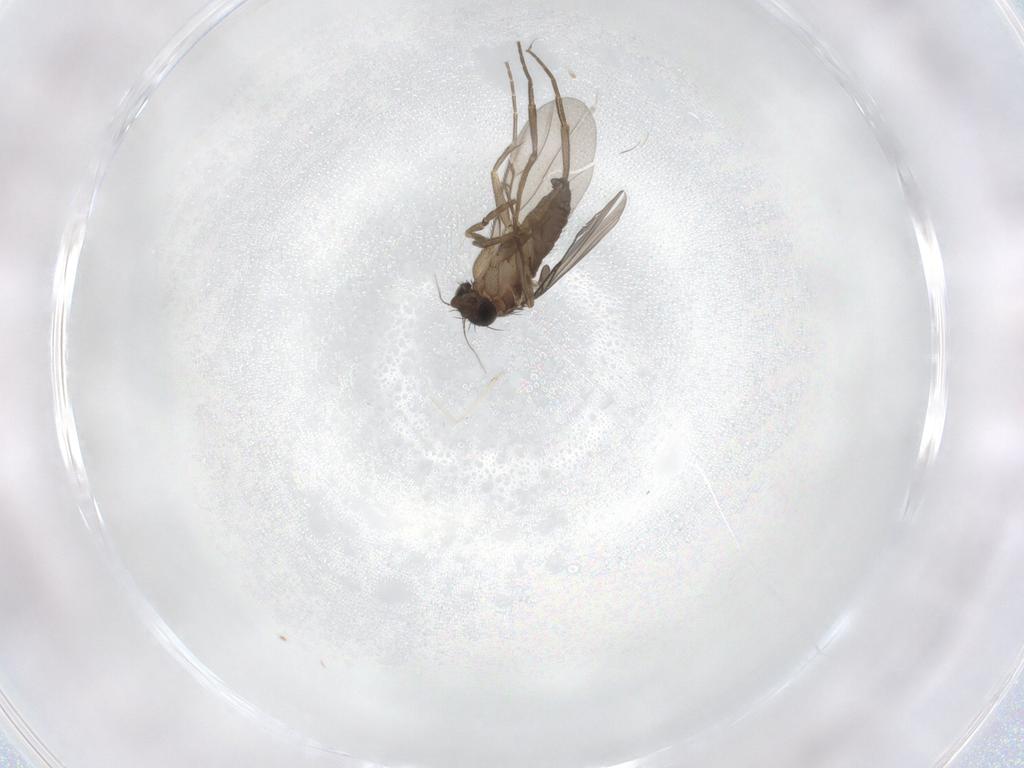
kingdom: Animalia
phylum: Arthropoda
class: Insecta
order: Diptera
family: Phoridae
